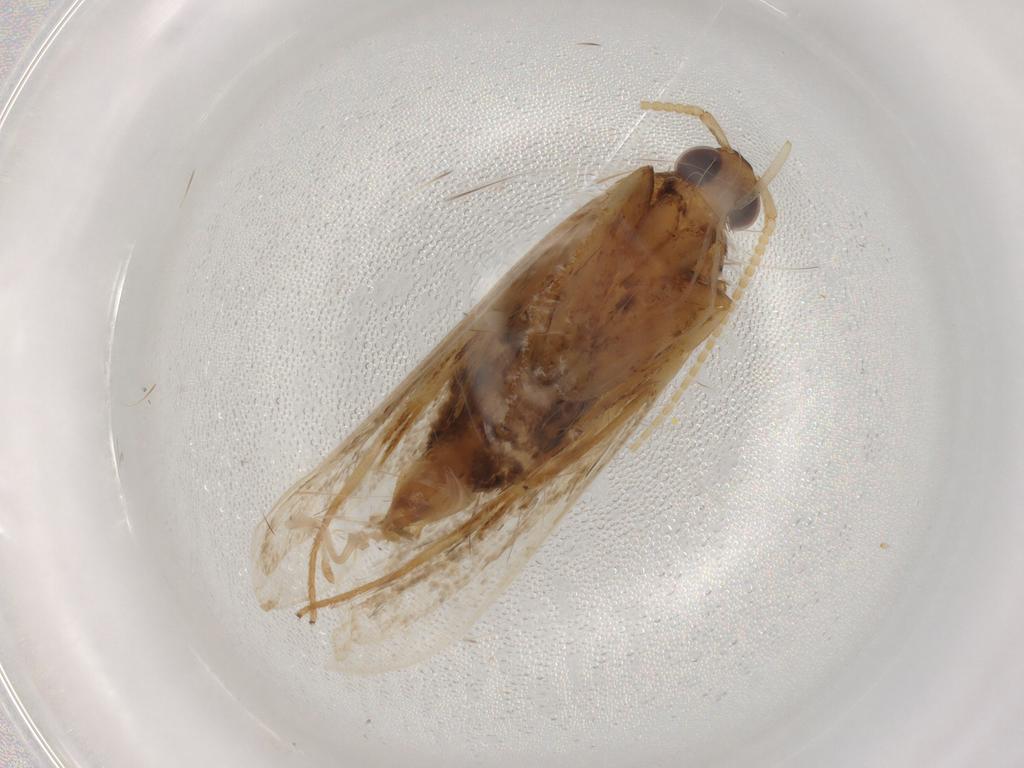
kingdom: Animalia
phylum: Arthropoda
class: Insecta
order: Lepidoptera
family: Lecithoceridae
